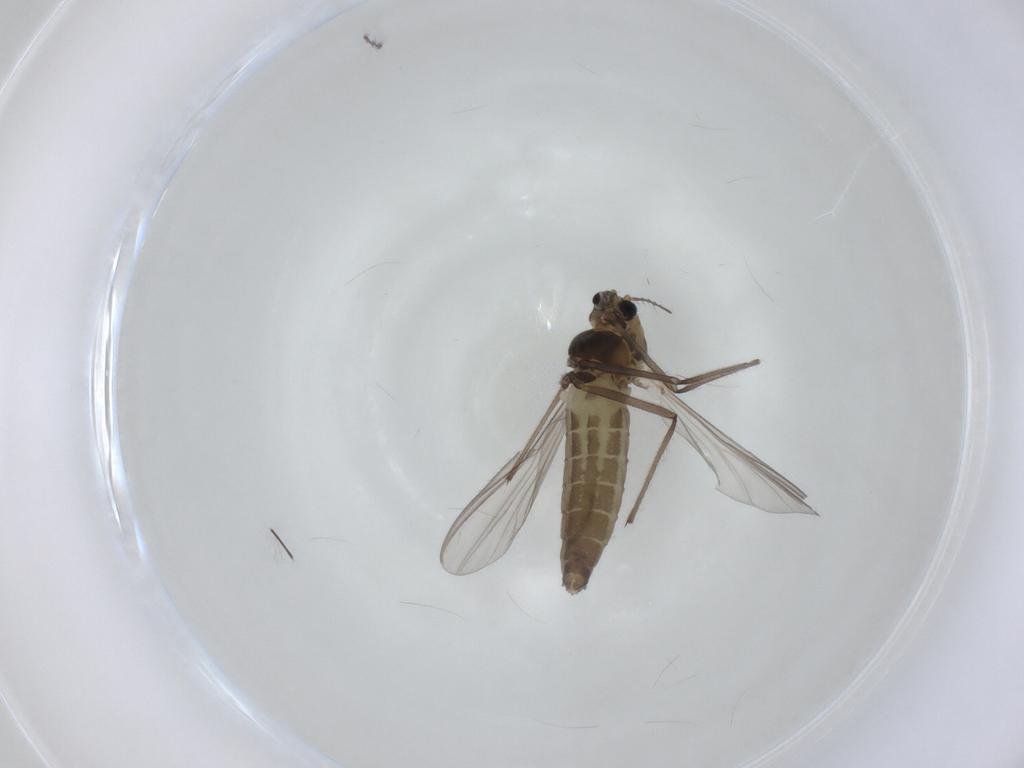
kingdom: Animalia
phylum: Arthropoda
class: Insecta
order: Diptera
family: Chironomidae
